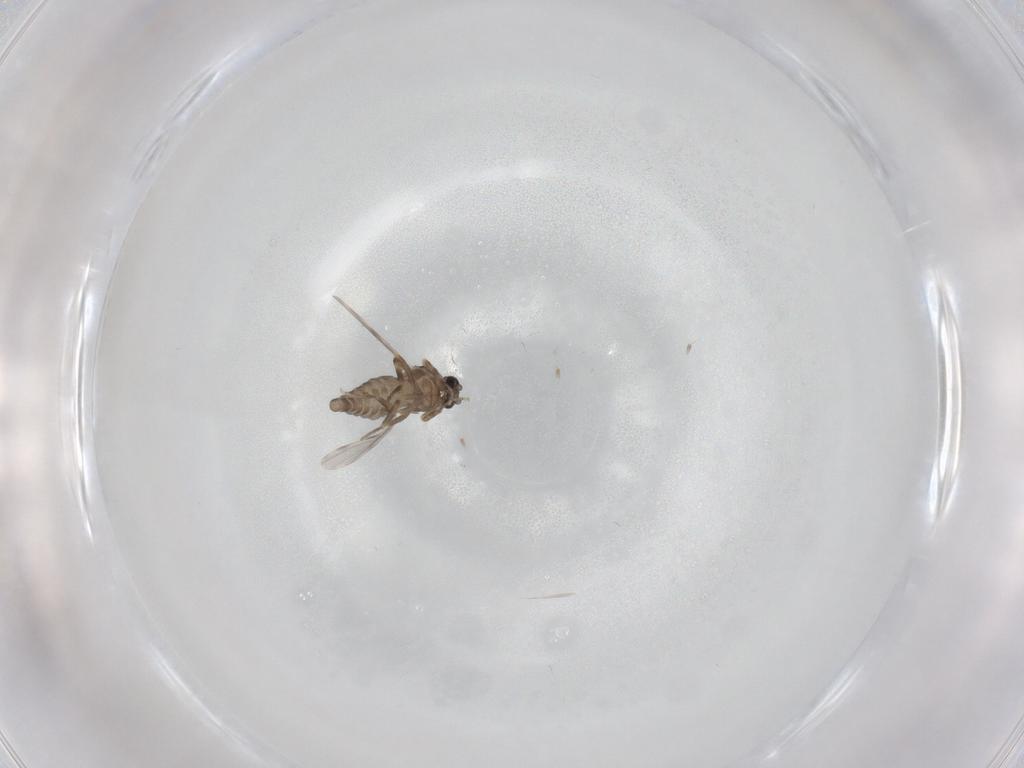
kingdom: Animalia
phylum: Arthropoda
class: Insecta
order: Diptera
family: Ceratopogonidae
